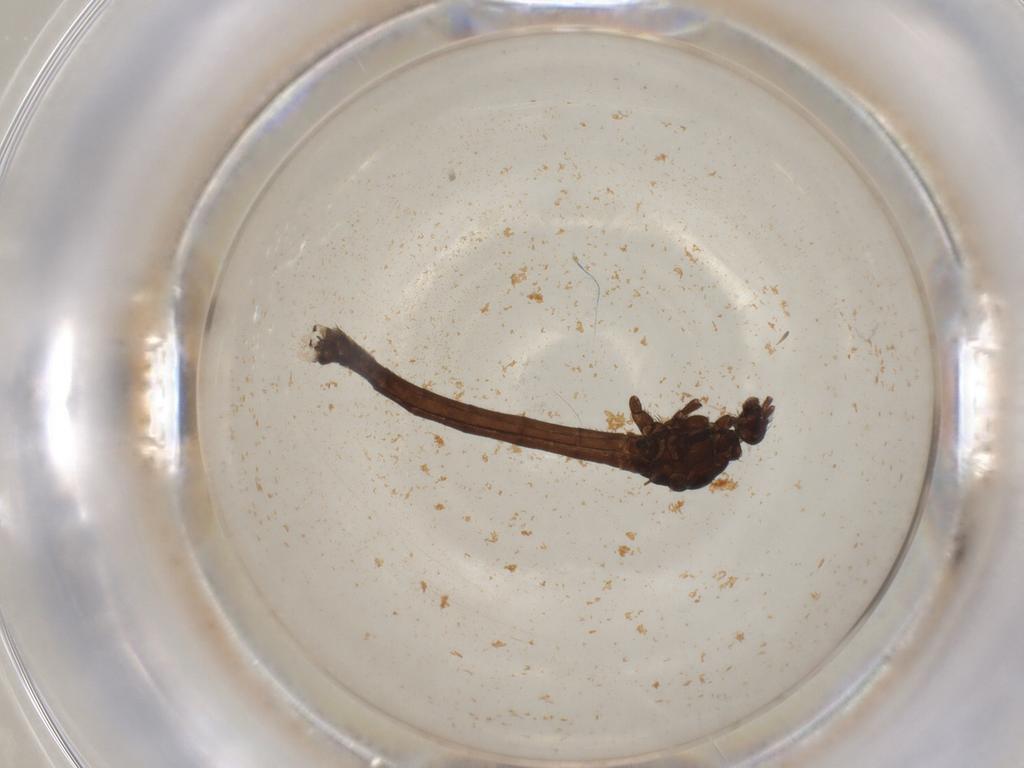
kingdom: Animalia
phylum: Arthropoda
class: Insecta
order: Diptera
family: Limoniidae
